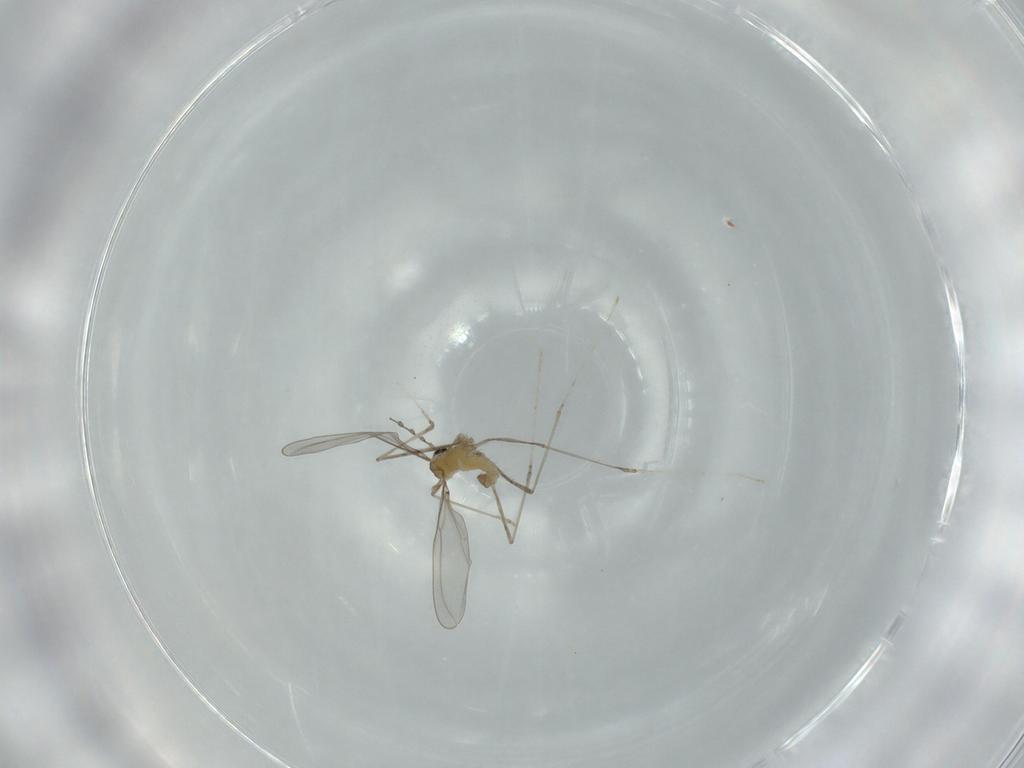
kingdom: Animalia
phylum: Arthropoda
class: Insecta
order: Diptera
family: Cecidomyiidae
